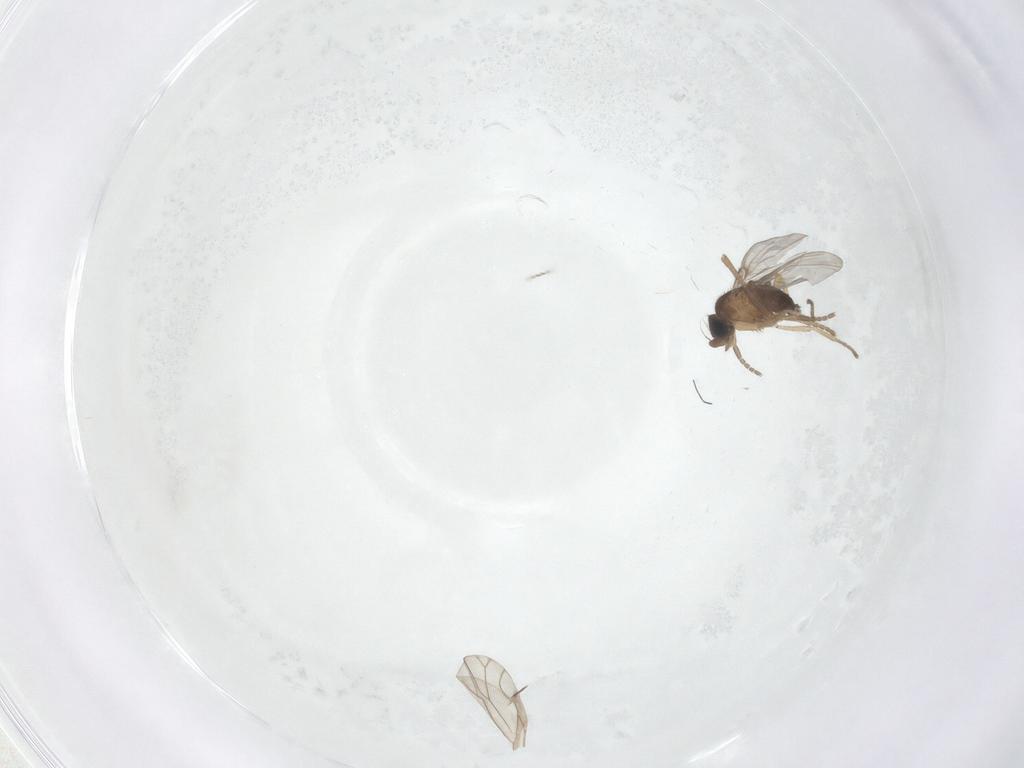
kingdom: Animalia
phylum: Arthropoda
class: Insecta
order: Diptera
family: Phoridae
